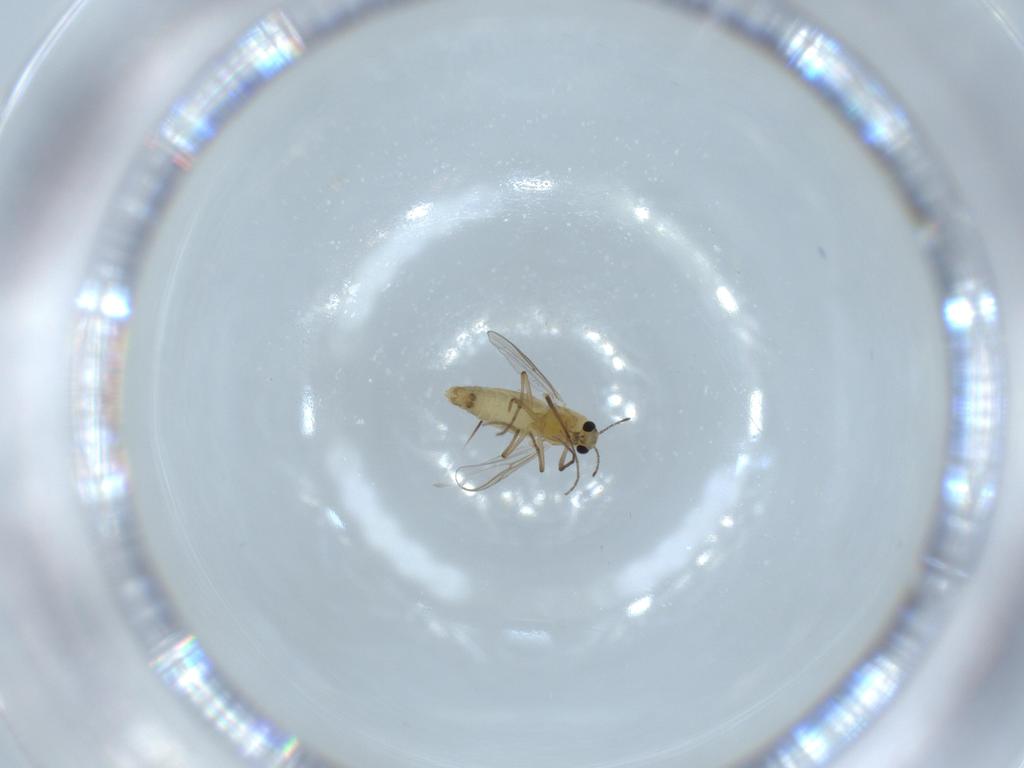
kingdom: Animalia
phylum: Arthropoda
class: Insecta
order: Diptera
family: Chironomidae
